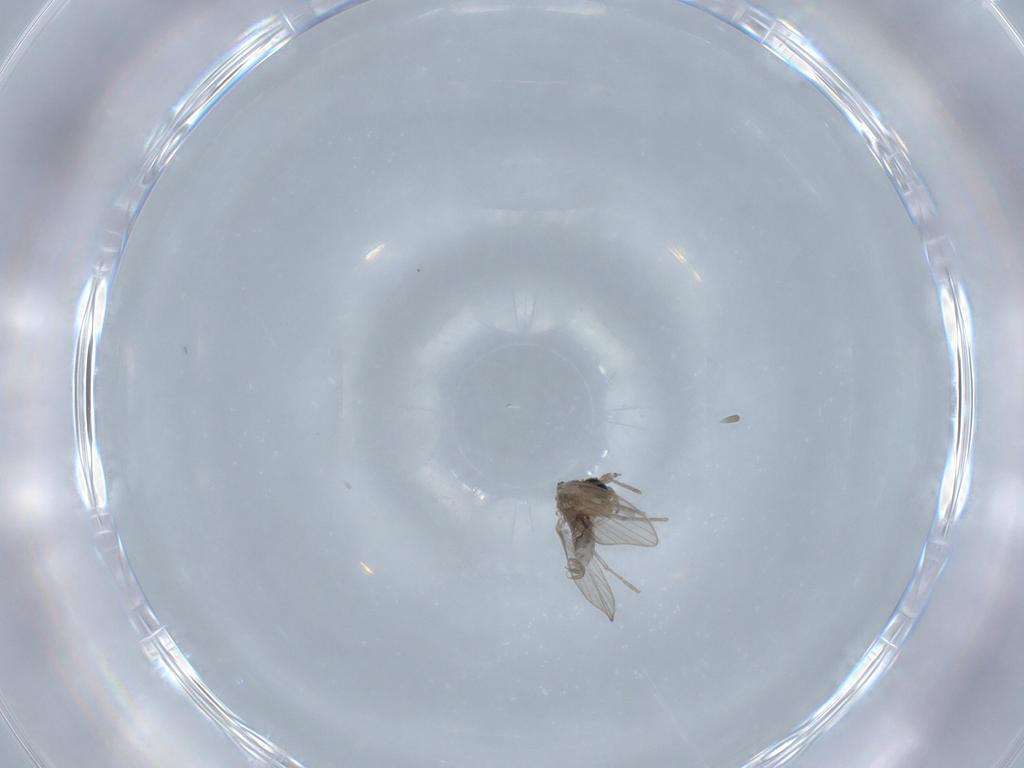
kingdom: Animalia
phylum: Arthropoda
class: Insecta
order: Diptera
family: Psychodidae
